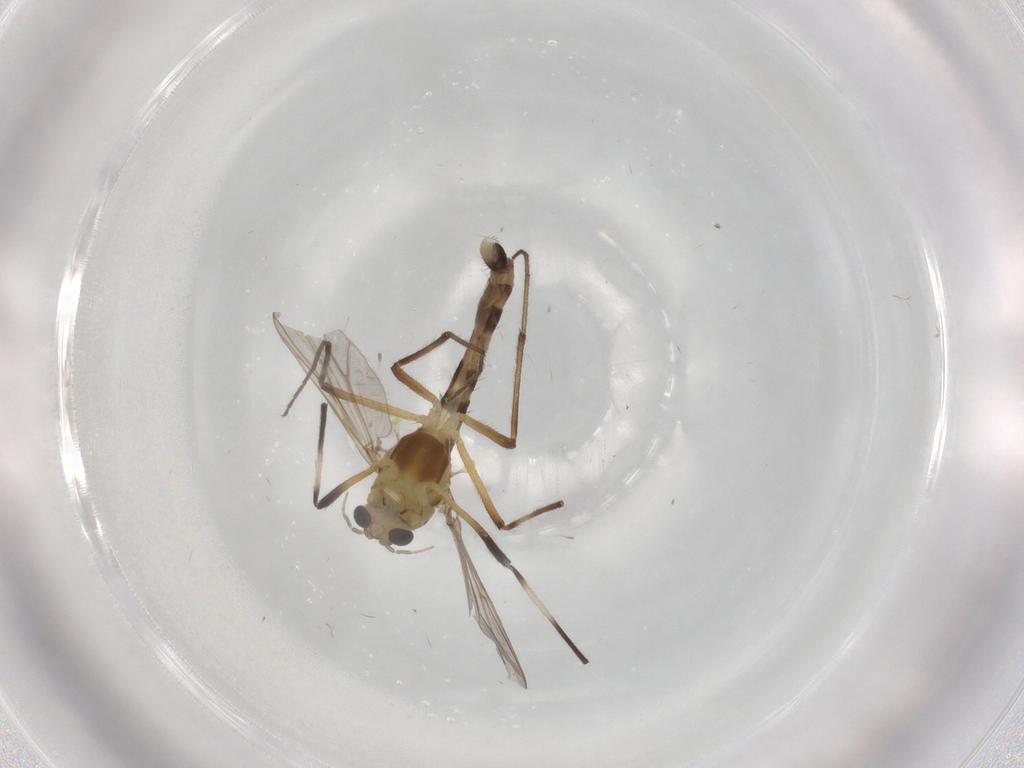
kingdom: Animalia
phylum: Arthropoda
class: Insecta
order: Diptera
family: Chironomidae
